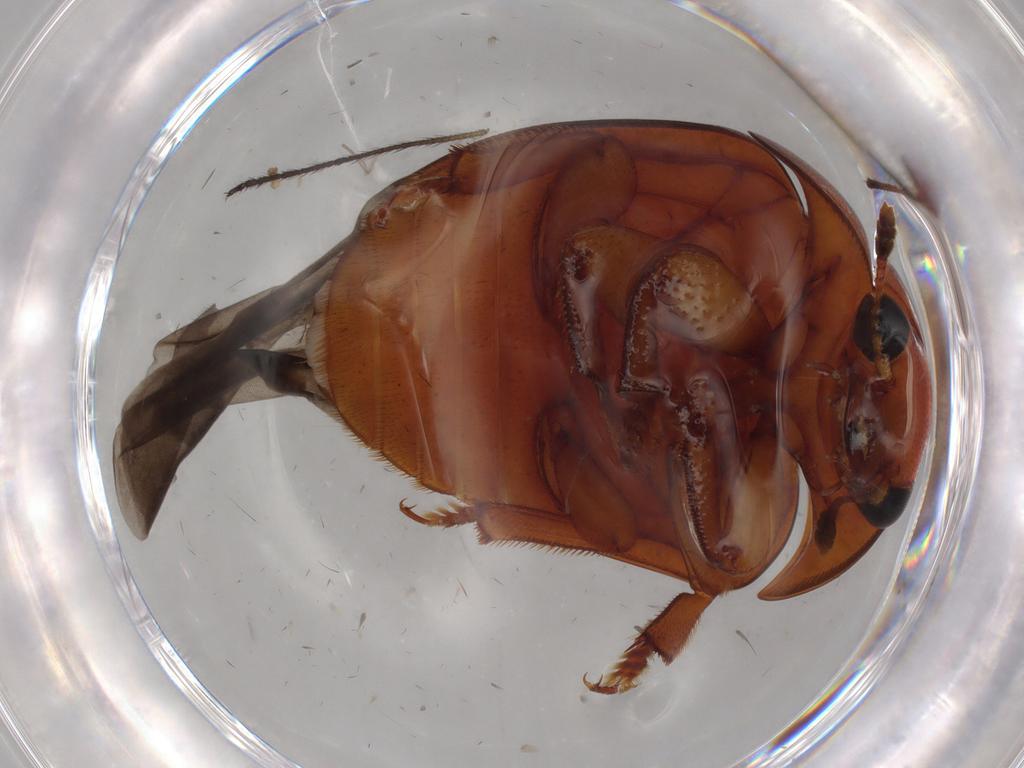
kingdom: Animalia
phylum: Arthropoda
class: Insecta
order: Coleoptera
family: Nitidulidae
